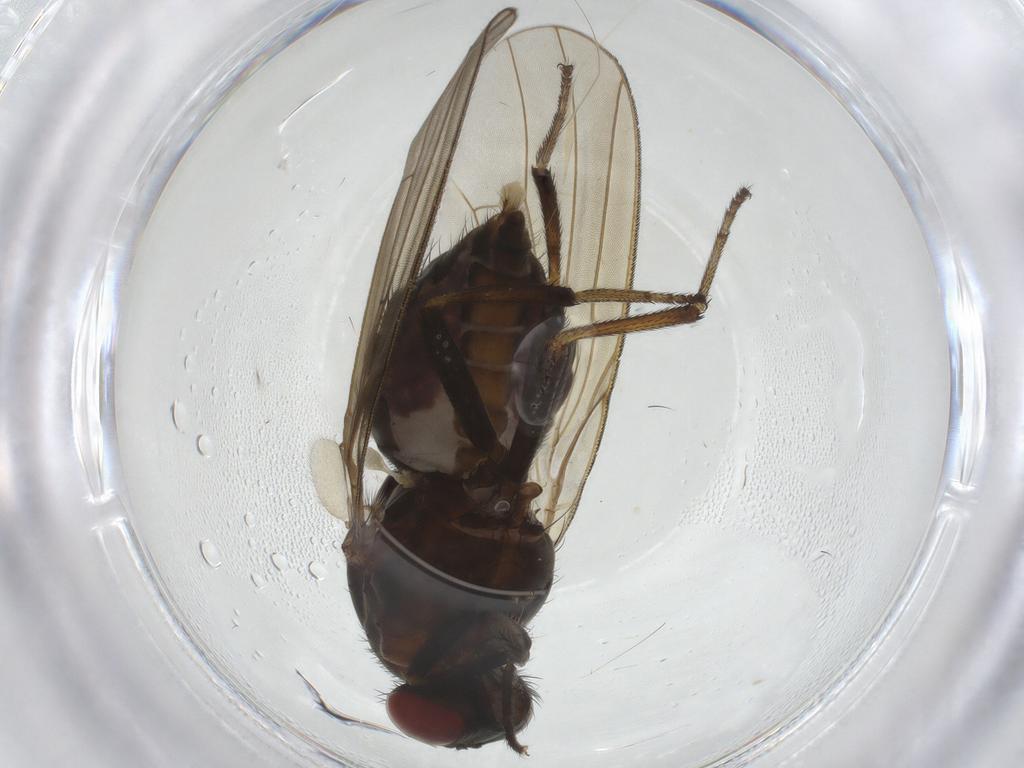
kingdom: Animalia
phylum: Arthropoda
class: Insecta
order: Diptera
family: Lauxaniidae
